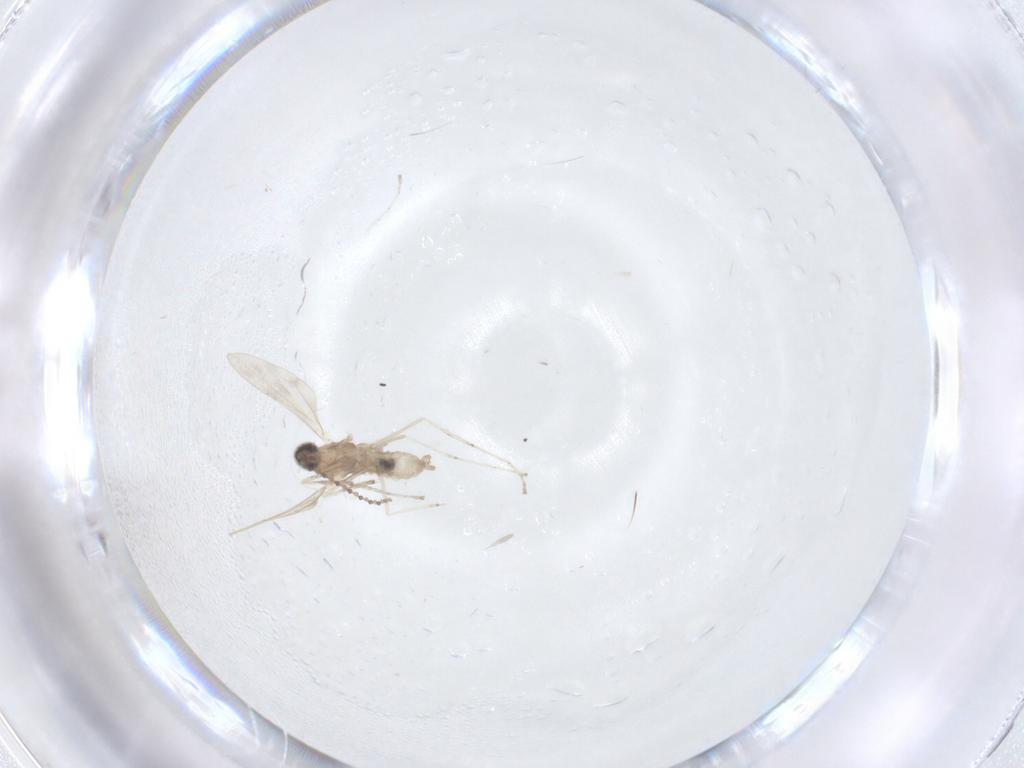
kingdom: Animalia
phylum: Arthropoda
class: Insecta
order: Diptera
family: Cecidomyiidae
